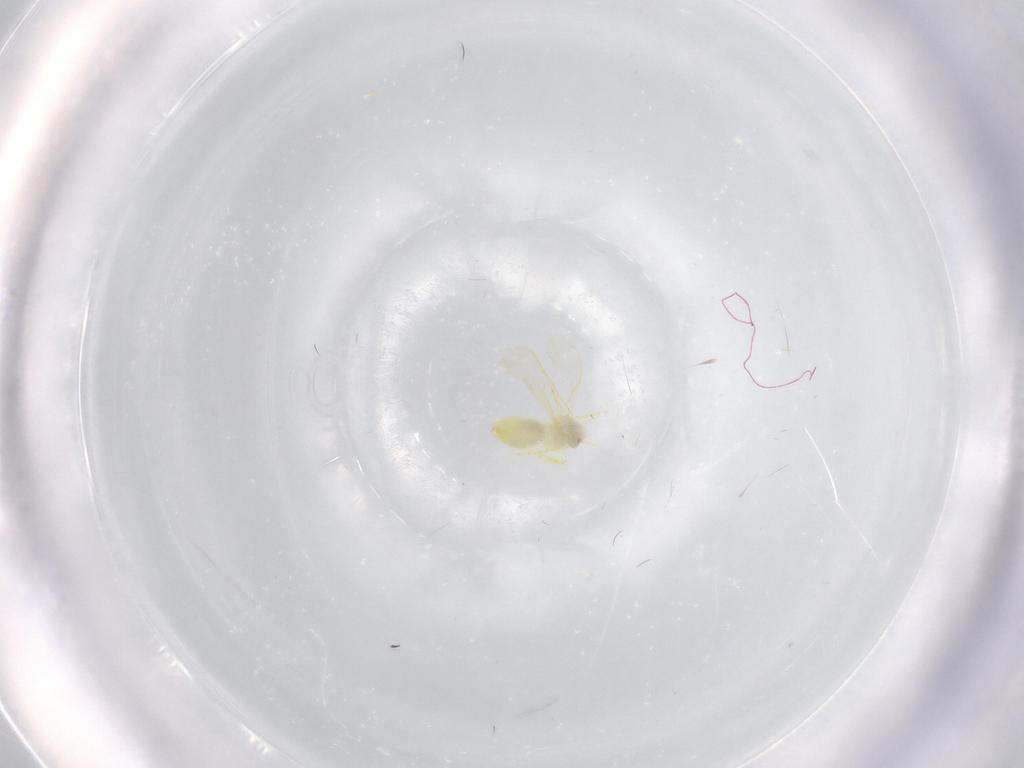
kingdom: Animalia
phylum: Arthropoda
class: Insecta
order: Hemiptera
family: Aleyrodidae
